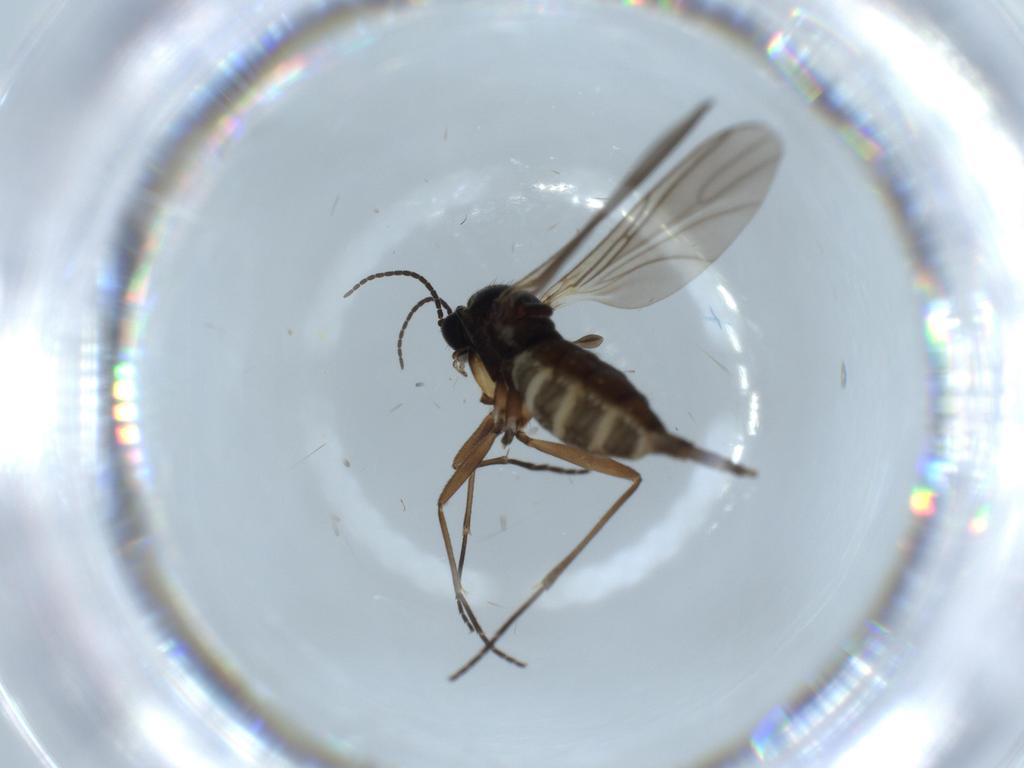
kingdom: Animalia
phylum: Arthropoda
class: Insecta
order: Diptera
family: Sciaridae
